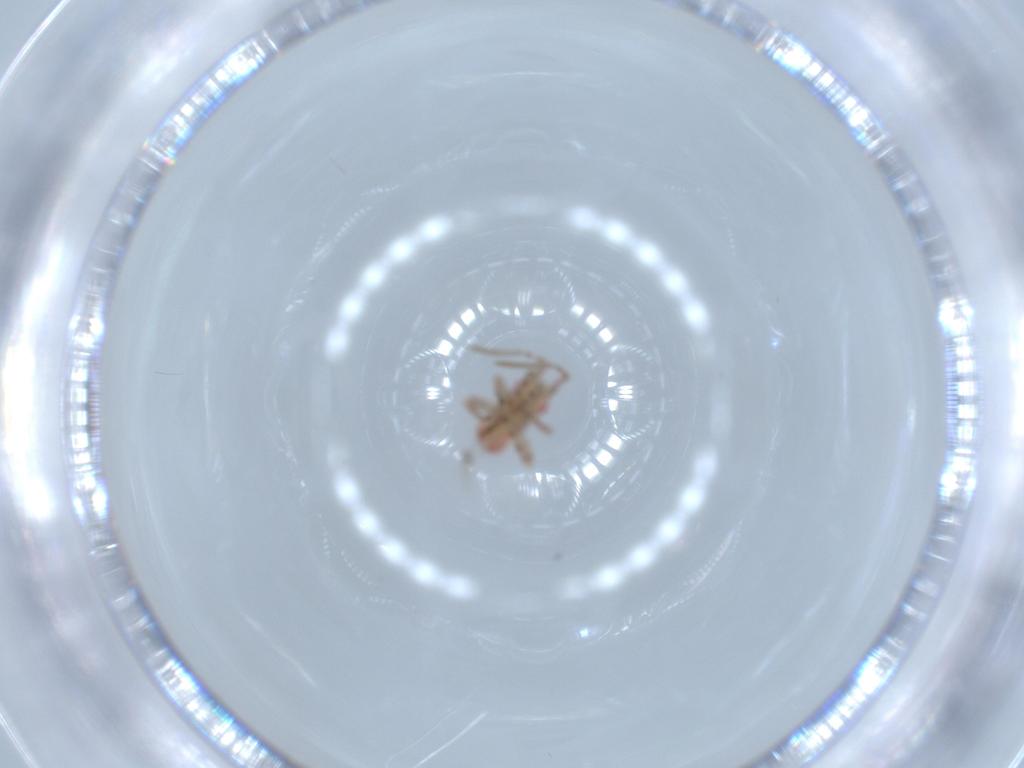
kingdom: Animalia
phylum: Arthropoda
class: Insecta
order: Hemiptera
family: Miridae
